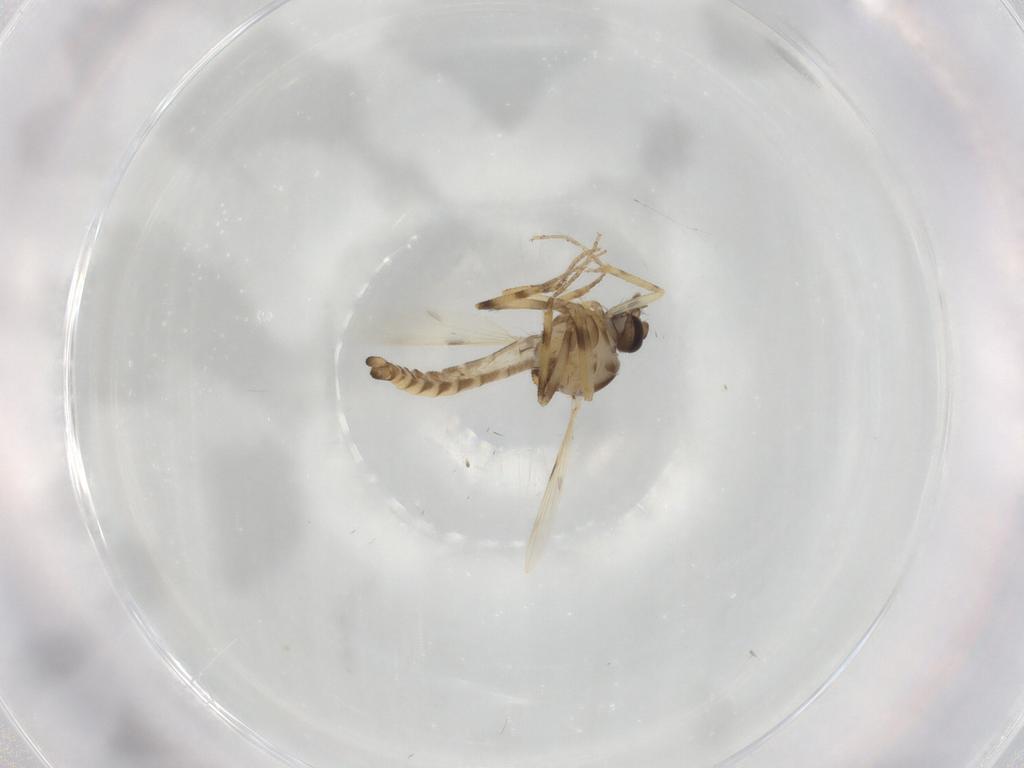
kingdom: Animalia
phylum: Arthropoda
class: Insecta
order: Diptera
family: Ceratopogonidae
